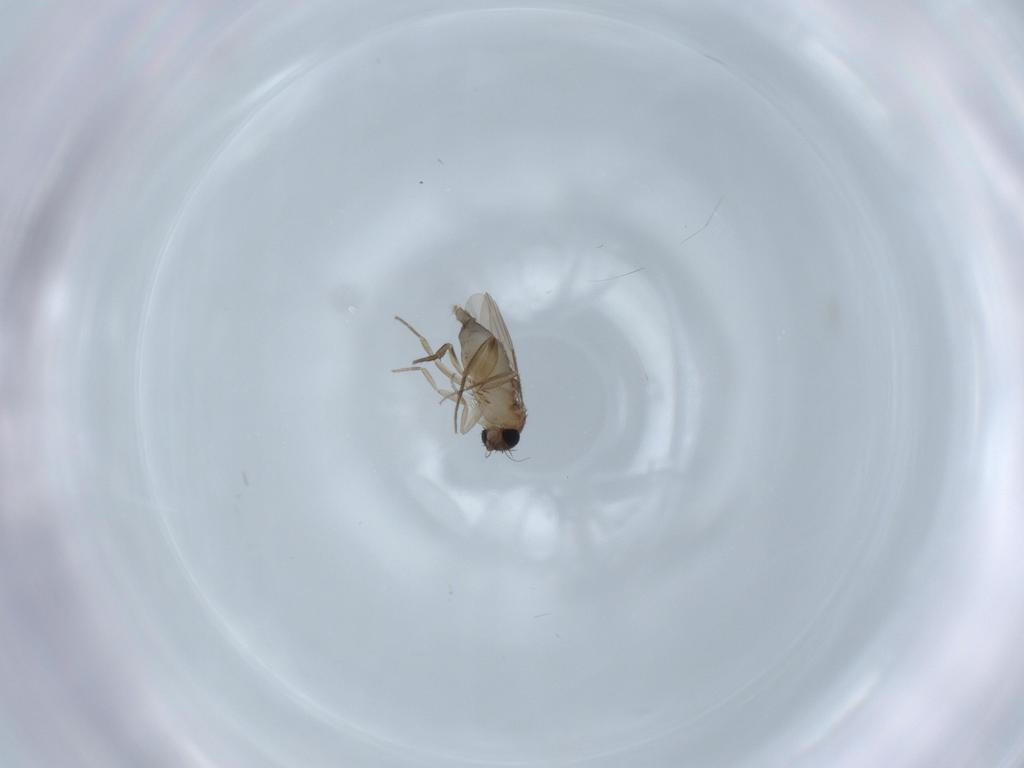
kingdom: Animalia
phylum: Arthropoda
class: Insecta
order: Diptera
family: Phoridae
